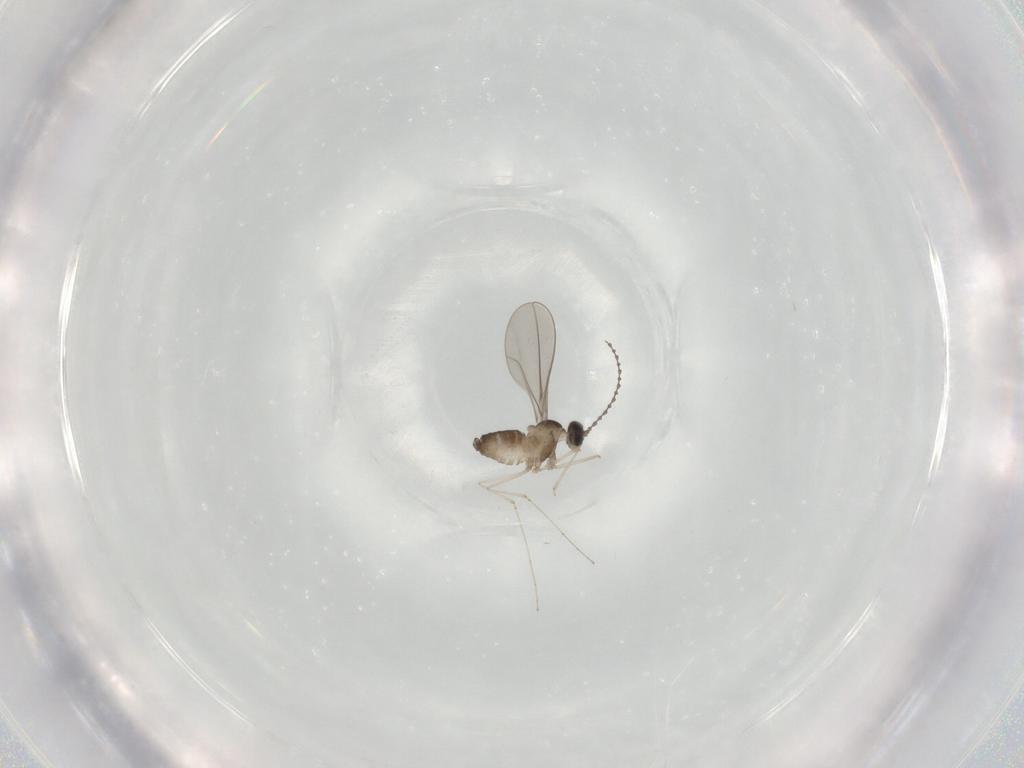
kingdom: Animalia
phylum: Arthropoda
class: Insecta
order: Diptera
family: Cecidomyiidae
